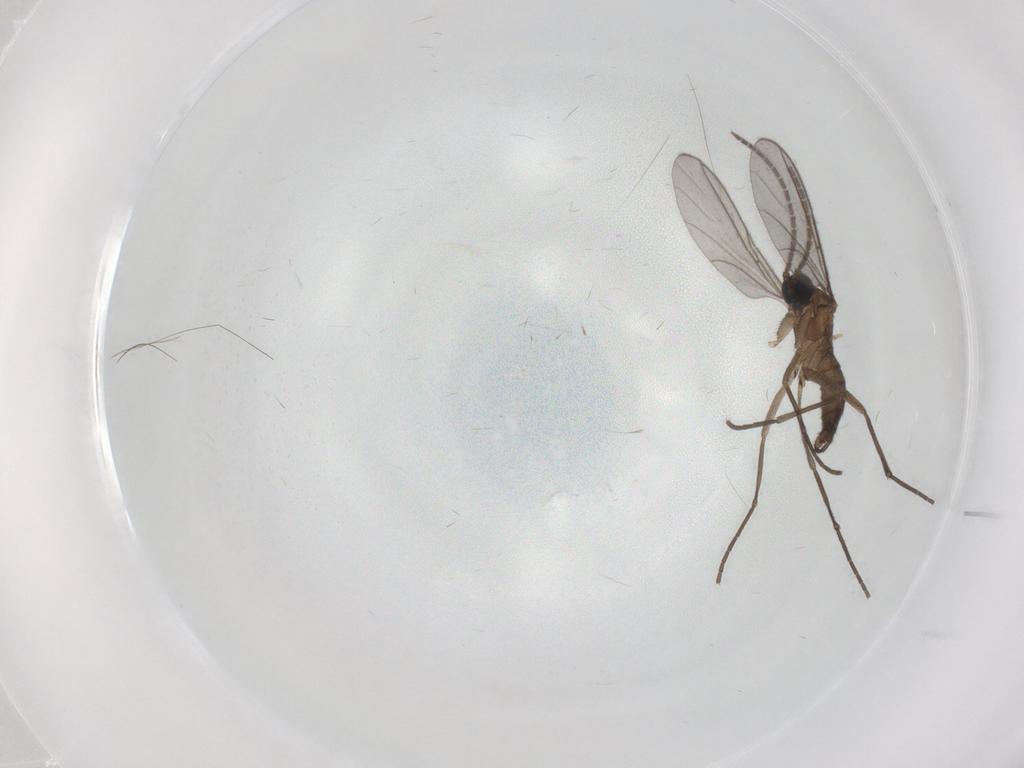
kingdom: Animalia
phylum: Arthropoda
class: Insecta
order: Diptera
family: Sciaridae
